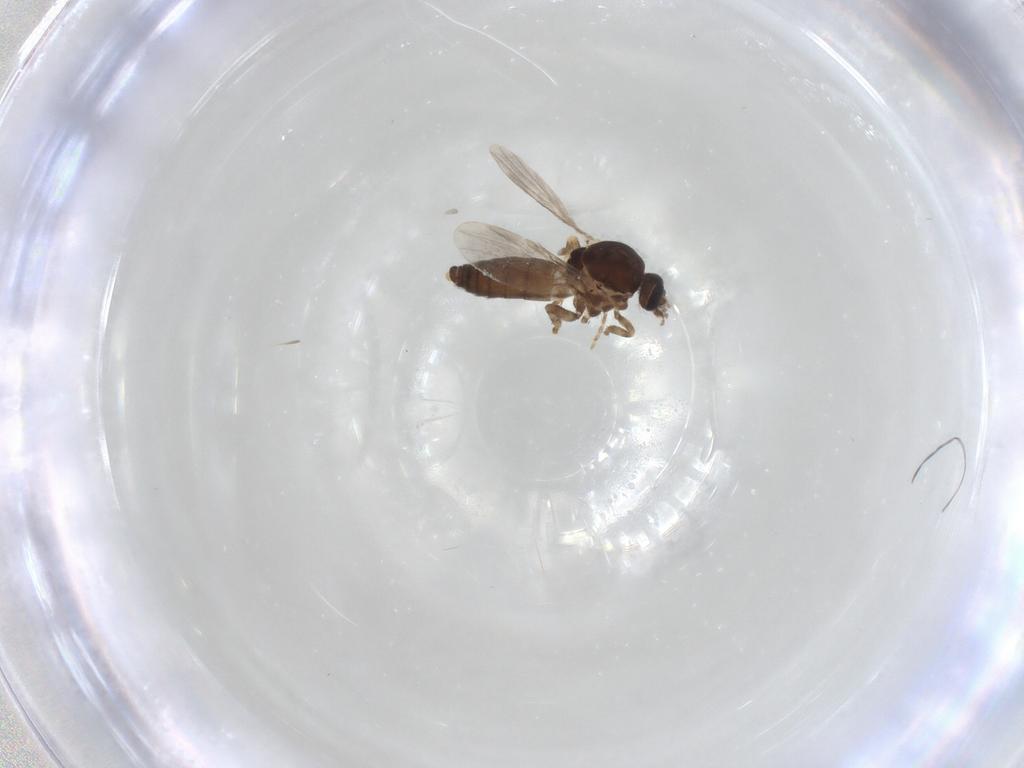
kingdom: Animalia
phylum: Arthropoda
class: Insecta
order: Diptera
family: Ceratopogonidae
